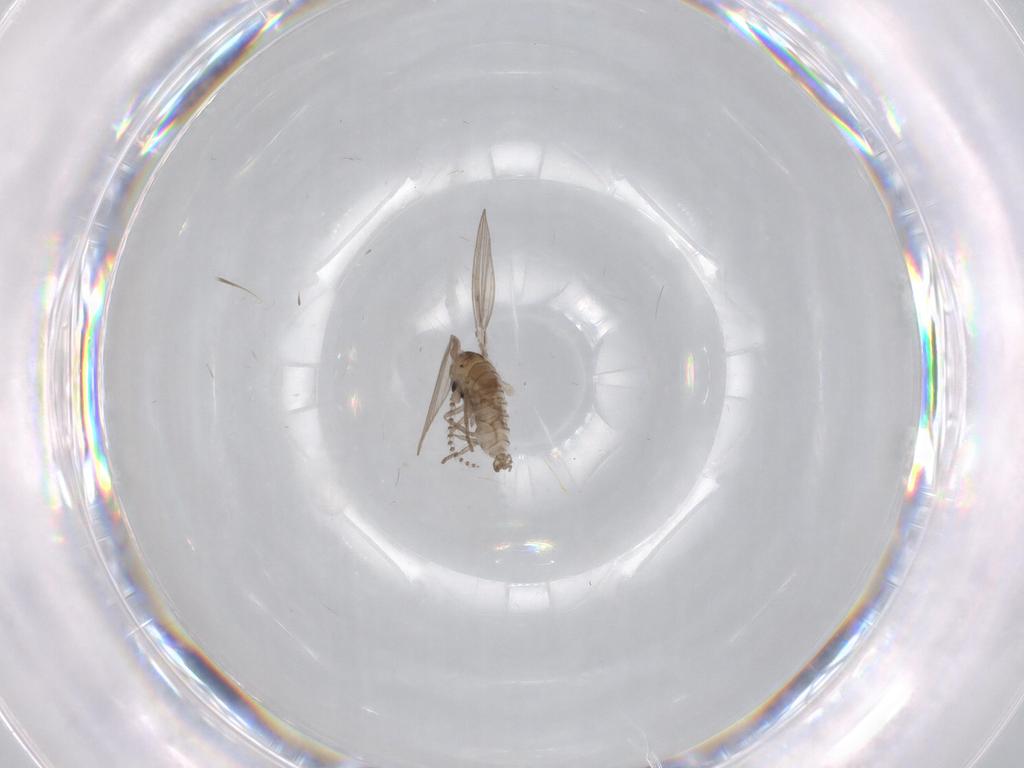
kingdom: Animalia
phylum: Arthropoda
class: Insecta
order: Diptera
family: Psychodidae
